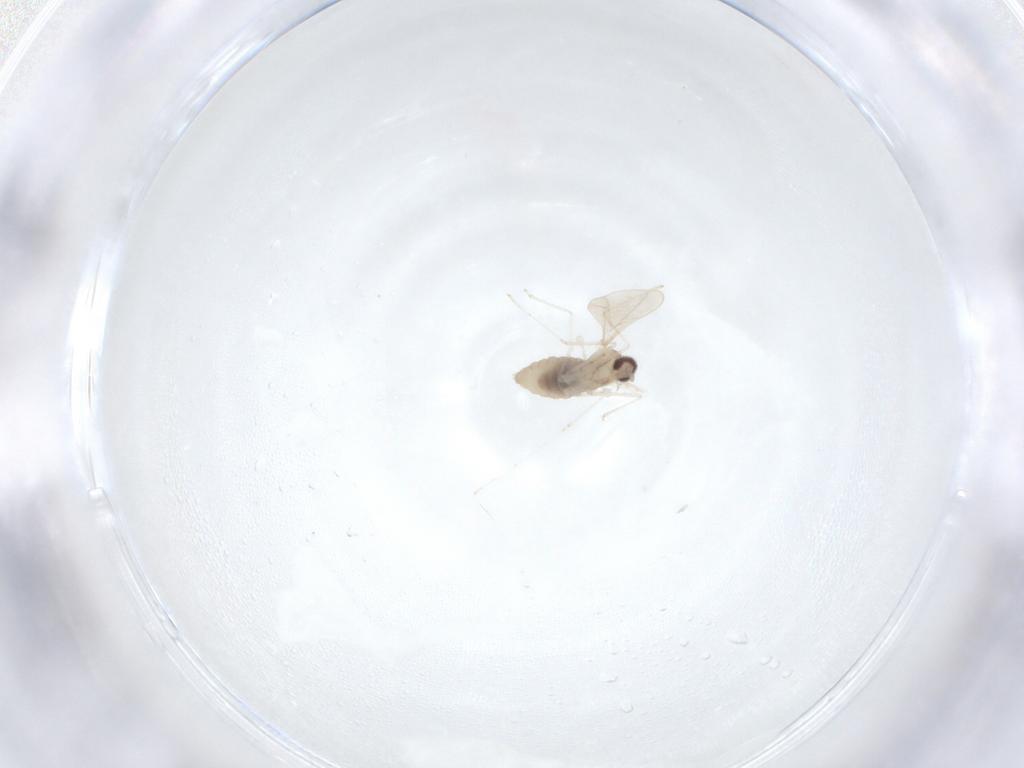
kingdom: Animalia
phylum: Arthropoda
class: Insecta
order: Diptera
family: Cecidomyiidae
